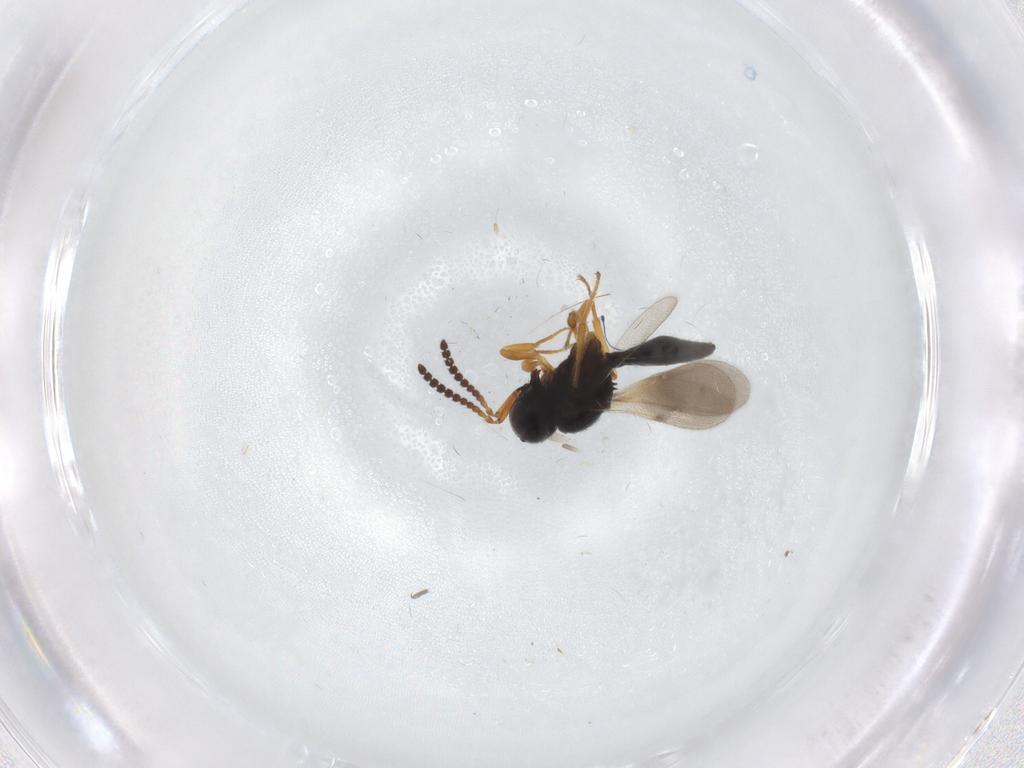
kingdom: Animalia
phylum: Arthropoda
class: Insecta
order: Hymenoptera
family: Scelionidae
